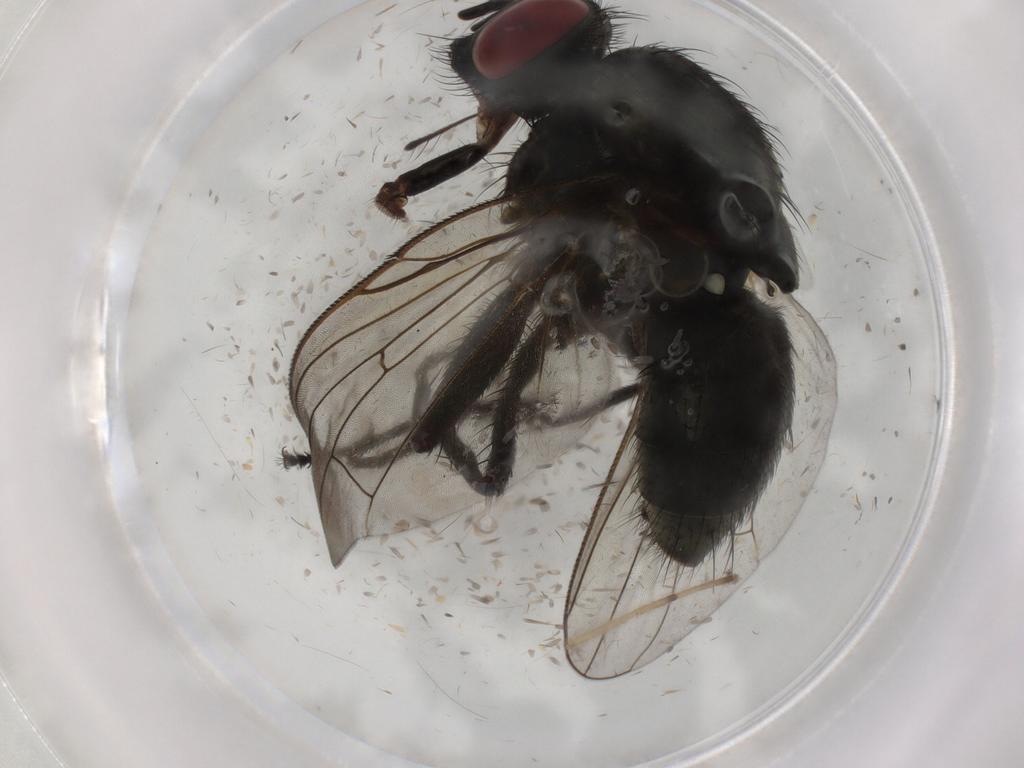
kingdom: Animalia
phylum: Arthropoda
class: Insecta
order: Diptera
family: Muscidae
